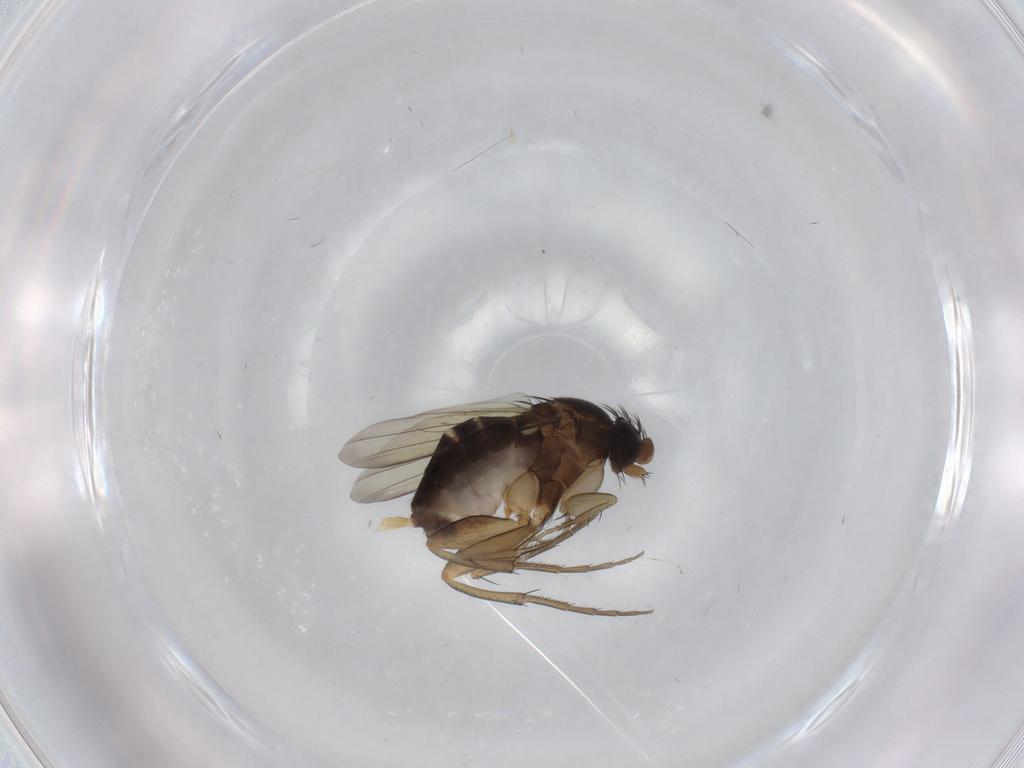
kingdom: Animalia
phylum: Arthropoda
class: Insecta
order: Diptera
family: Phoridae
